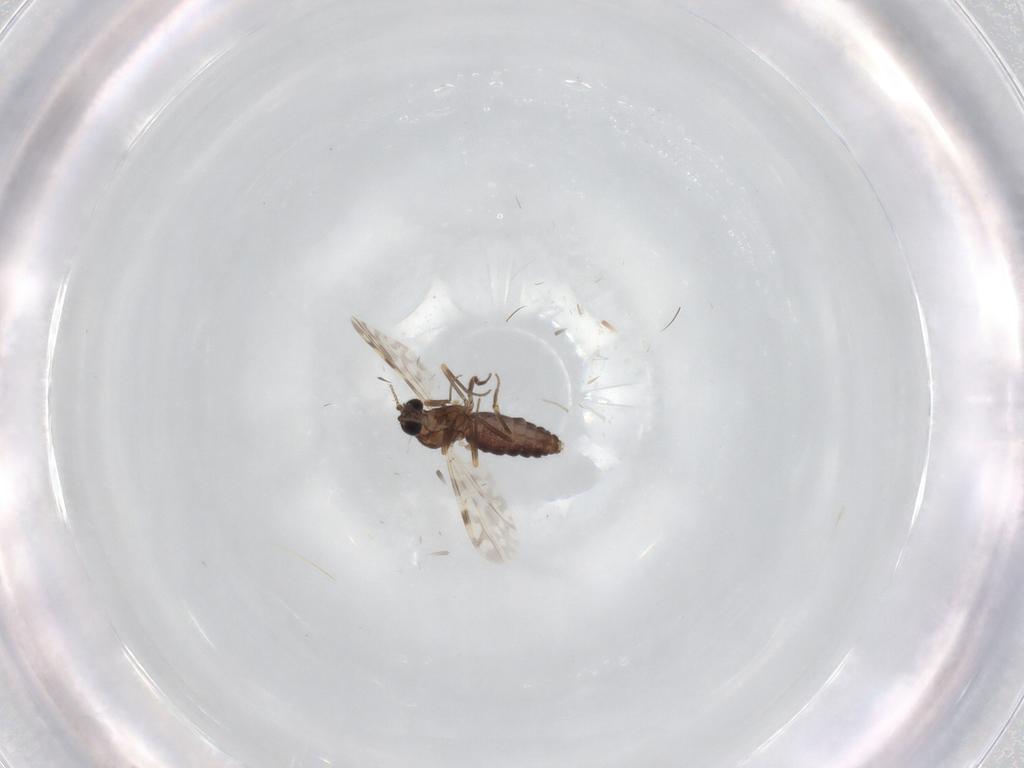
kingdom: Animalia
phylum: Arthropoda
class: Insecta
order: Diptera
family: Ceratopogonidae
